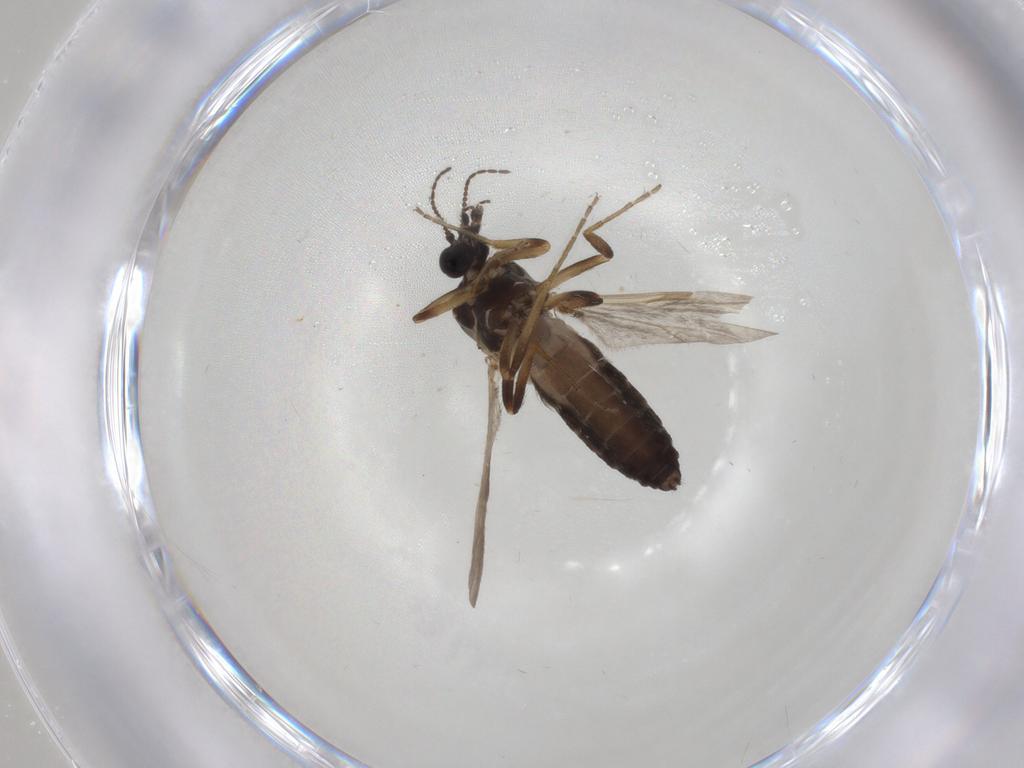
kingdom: Animalia
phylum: Arthropoda
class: Insecta
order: Diptera
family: Ceratopogonidae
